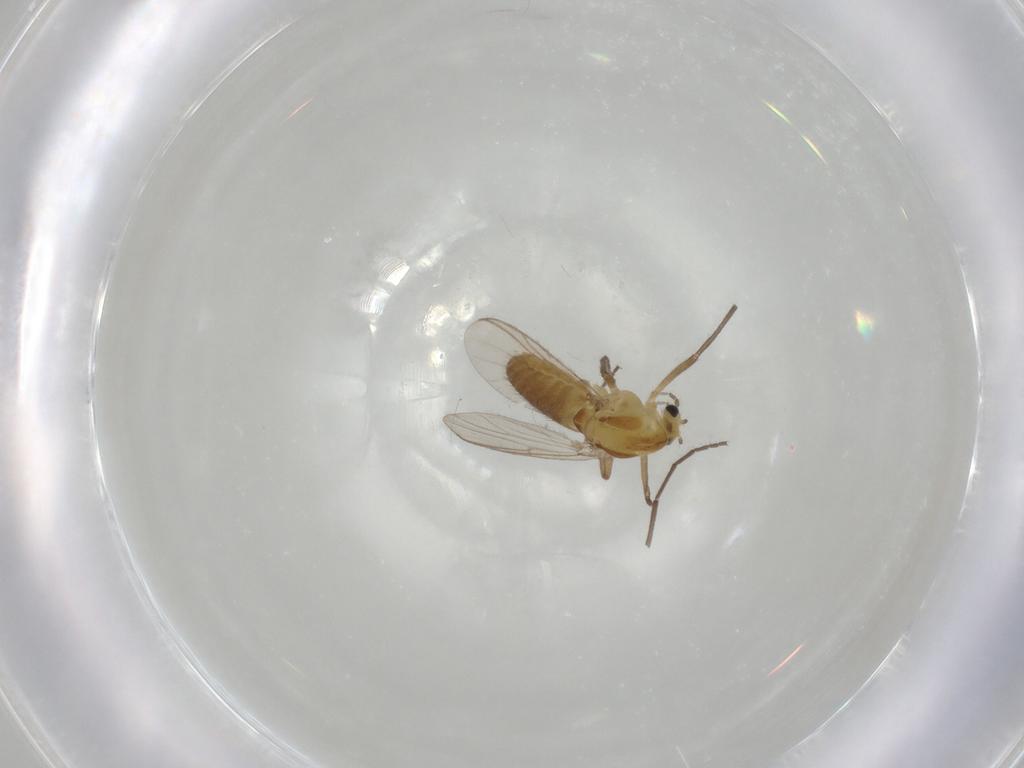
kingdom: Animalia
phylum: Arthropoda
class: Insecta
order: Diptera
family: Chironomidae
